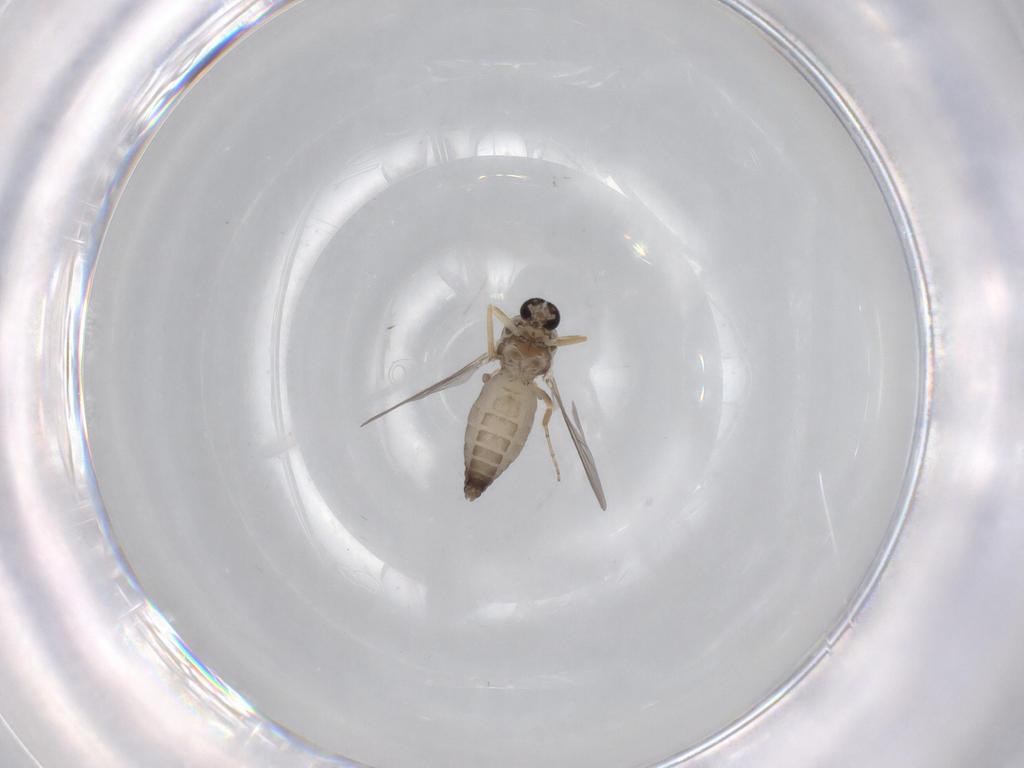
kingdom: Animalia
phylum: Arthropoda
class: Insecta
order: Diptera
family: Ceratopogonidae
